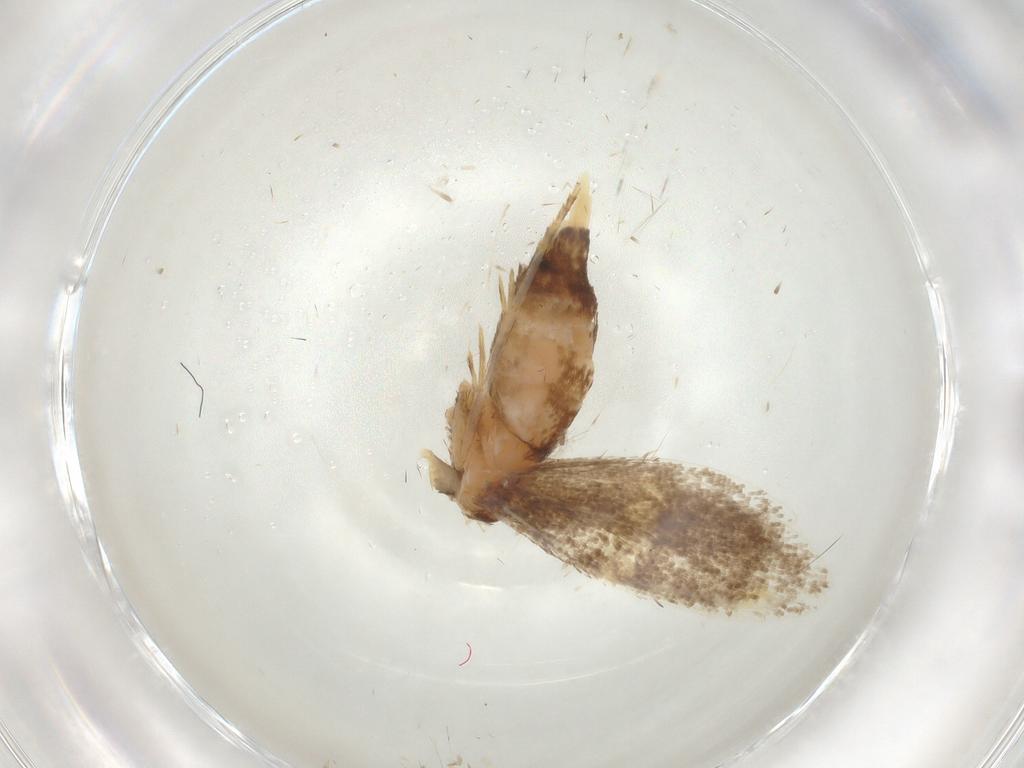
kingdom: Animalia
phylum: Arthropoda
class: Insecta
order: Lepidoptera
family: Oecophoridae
